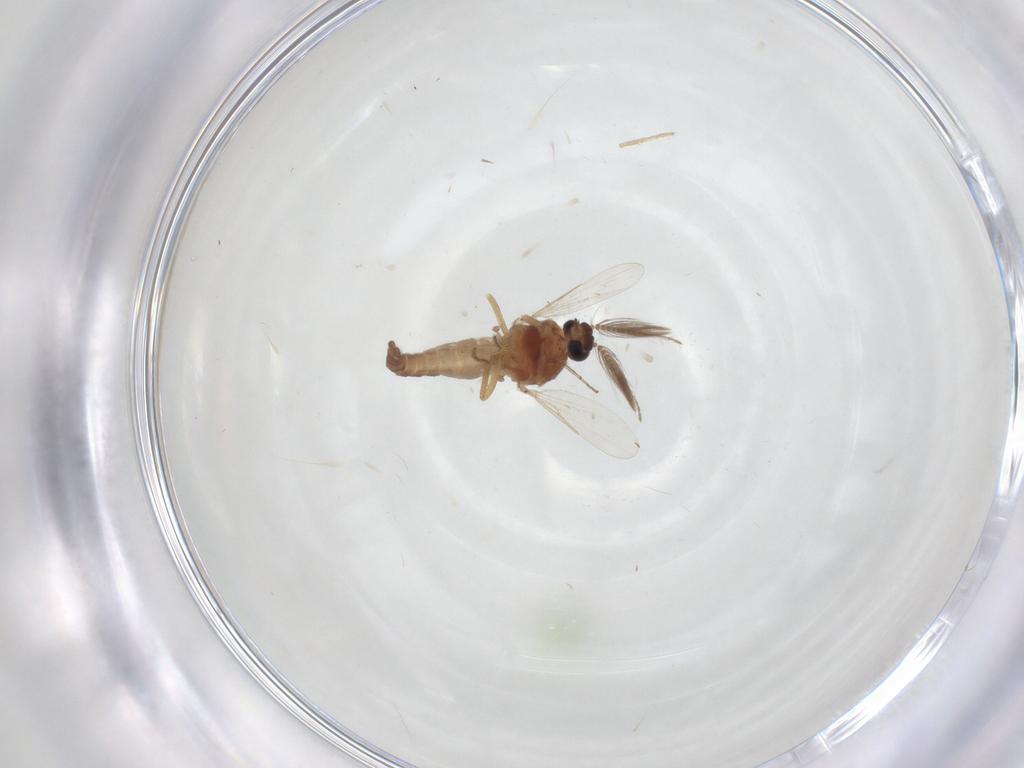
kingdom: Animalia
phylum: Arthropoda
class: Insecta
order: Diptera
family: Ceratopogonidae
